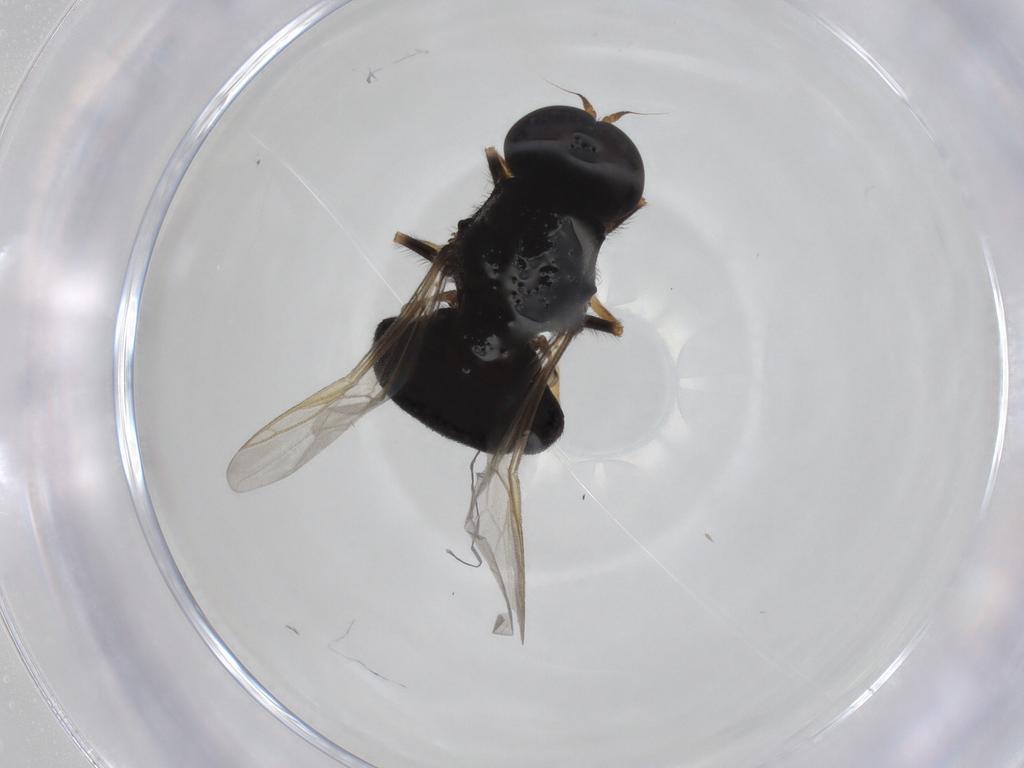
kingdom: Animalia
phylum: Arthropoda
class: Insecta
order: Diptera
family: Stratiomyidae
